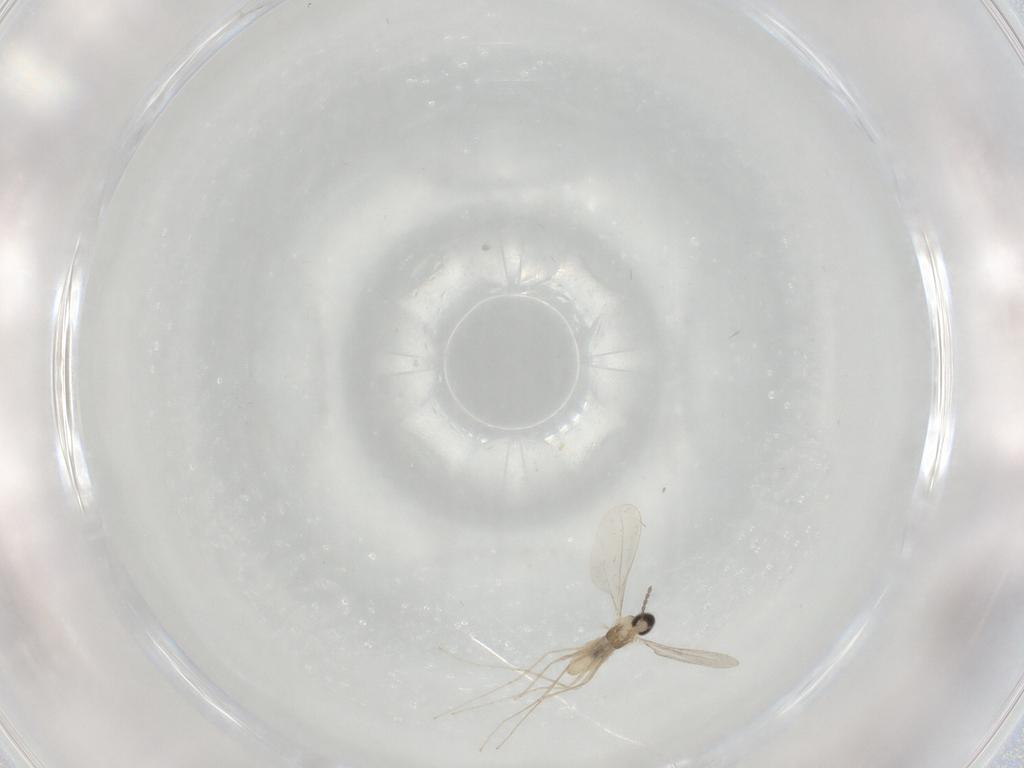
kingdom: Animalia
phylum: Arthropoda
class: Insecta
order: Diptera
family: Cecidomyiidae
